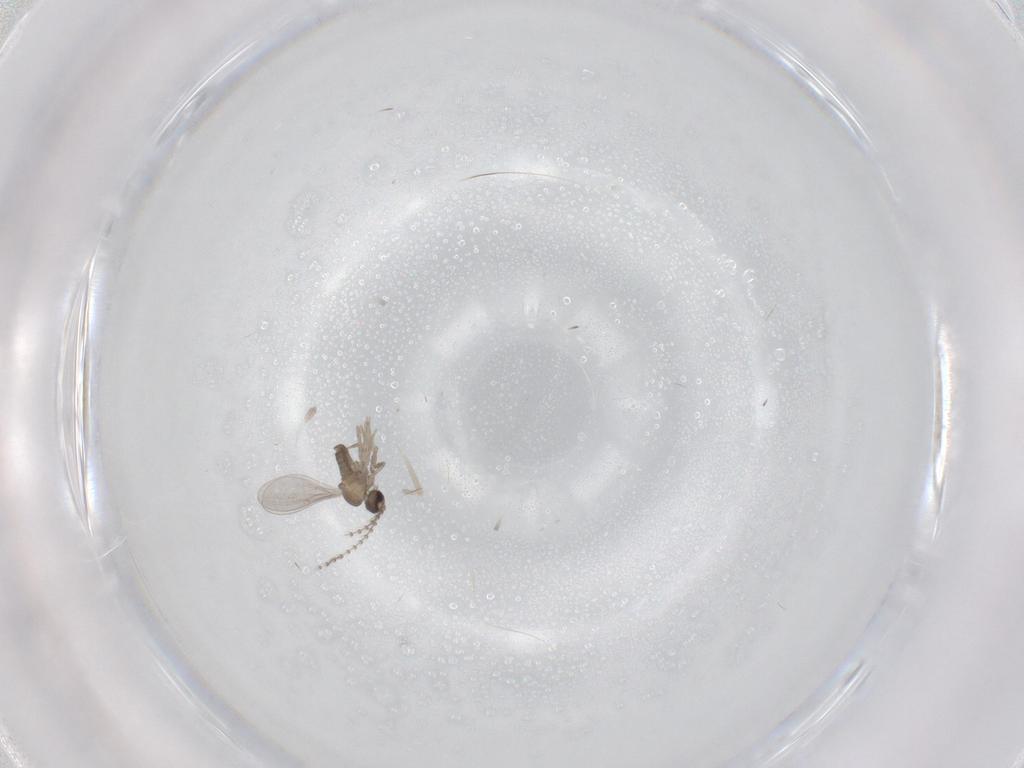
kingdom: Animalia
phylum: Arthropoda
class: Insecta
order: Diptera
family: Cecidomyiidae
